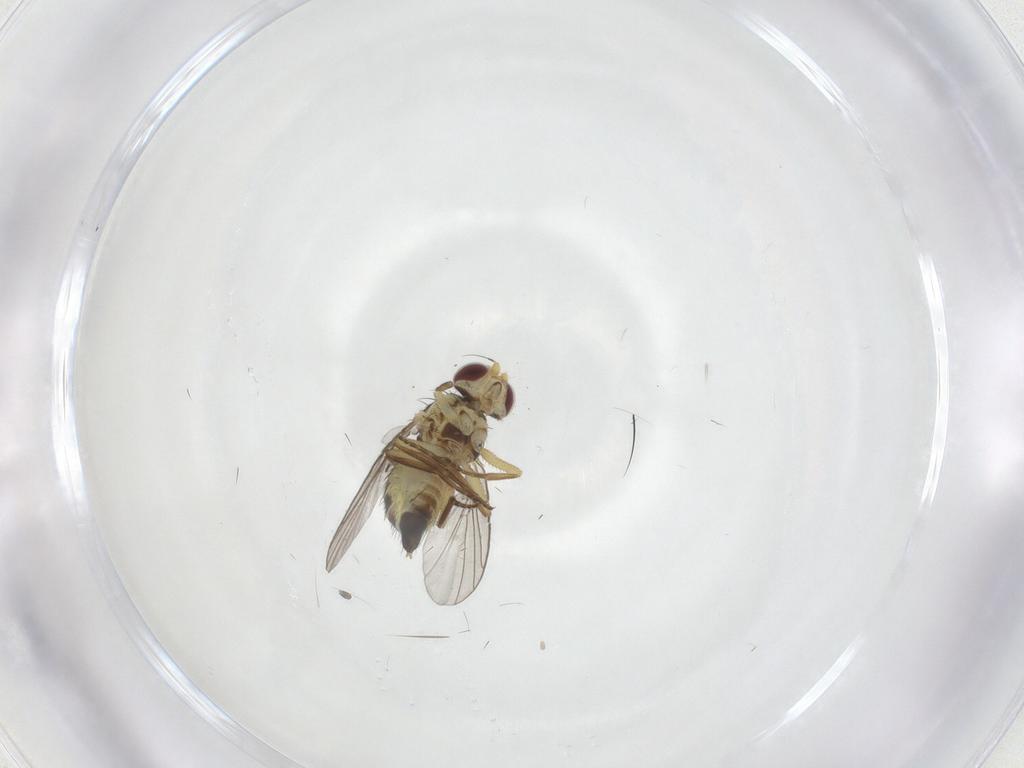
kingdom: Animalia
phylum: Arthropoda
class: Insecta
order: Diptera
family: Agromyzidae
